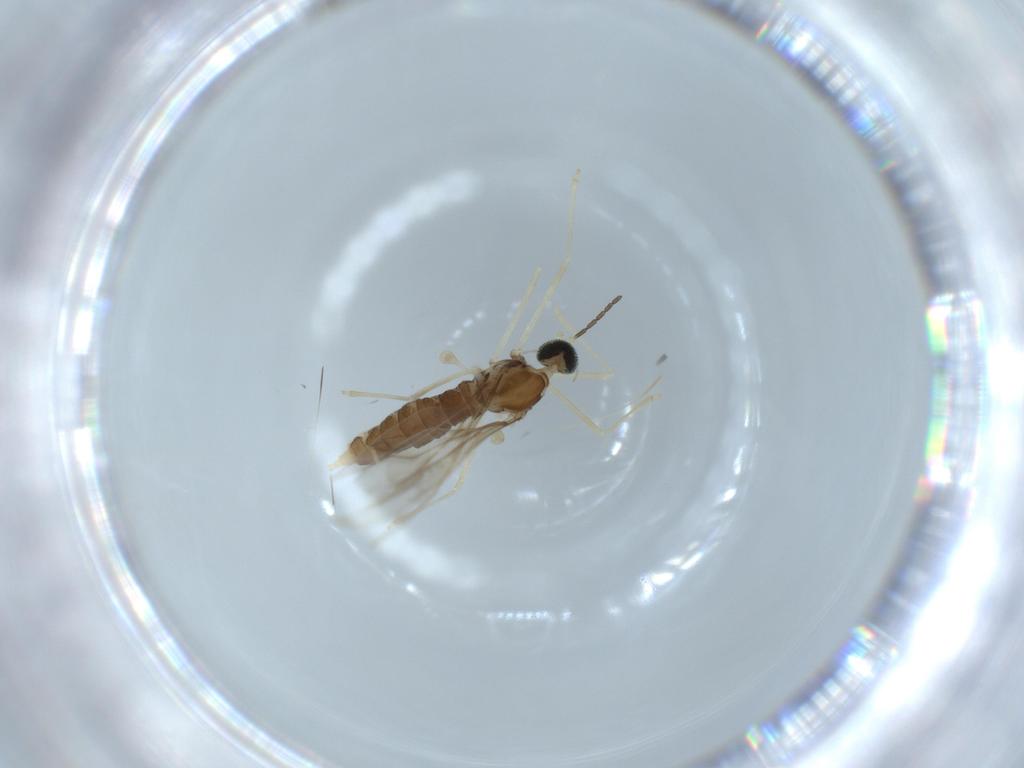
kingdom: Animalia
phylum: Arthropoda
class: Insecta
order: Diptera
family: Cecidomyiidae
